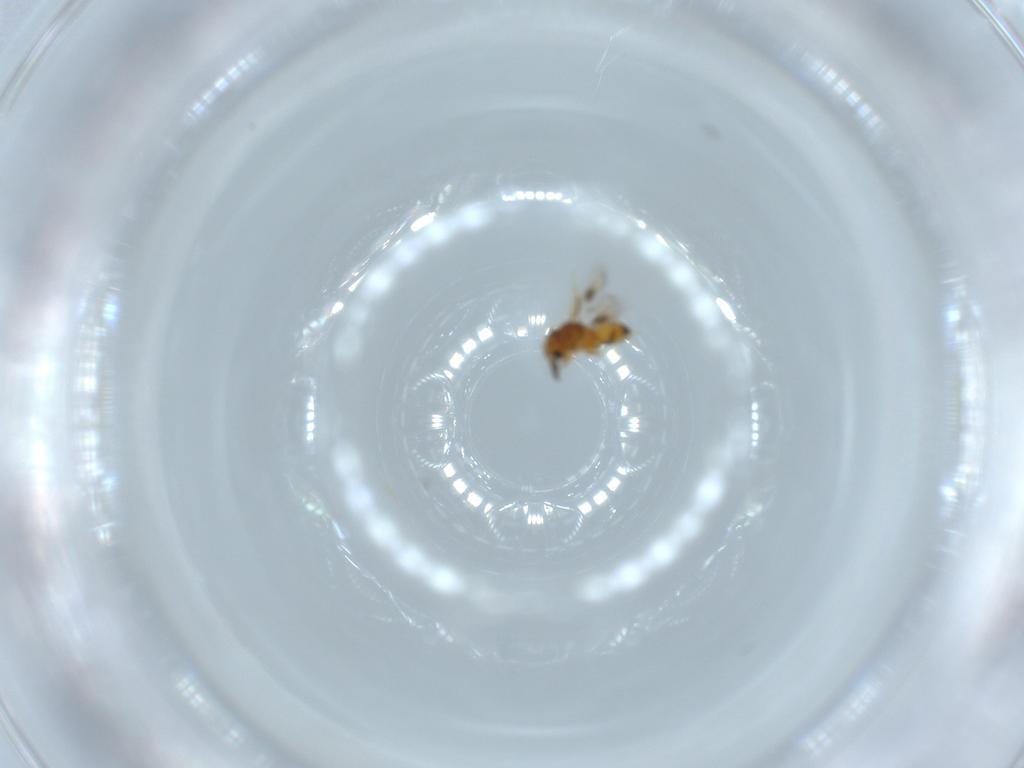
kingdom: Animalia
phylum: Arthropoda
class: Insecta
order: Hymenoptera
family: Scelionidae
